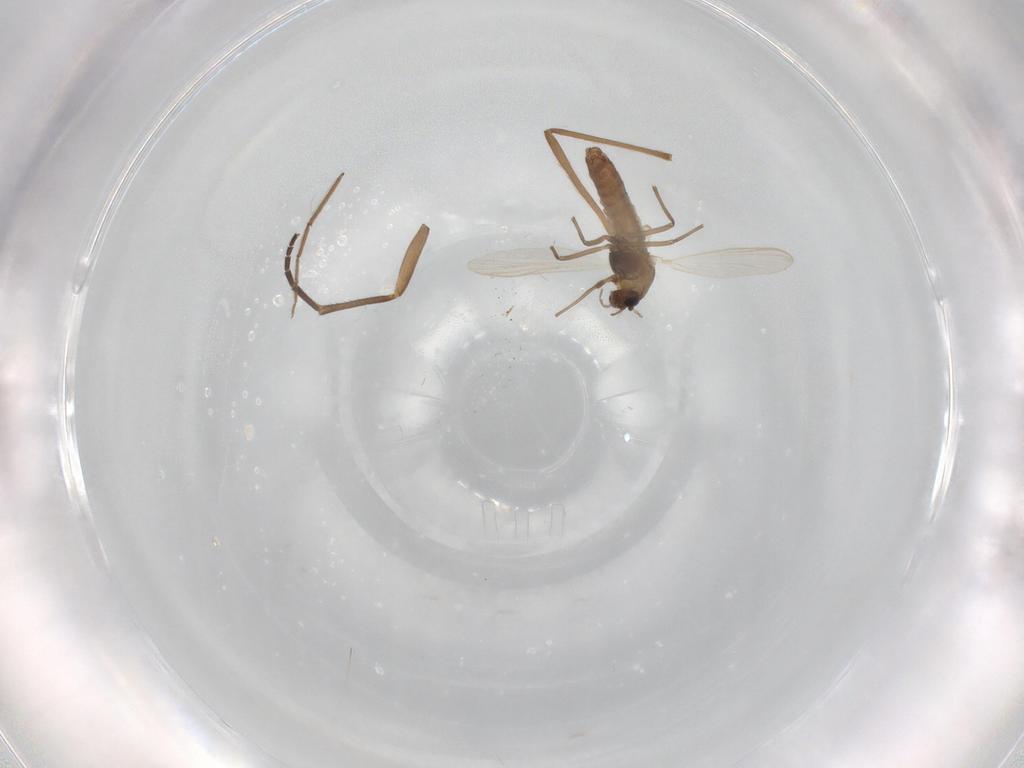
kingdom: Animalia
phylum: Arthropoda
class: Insecta
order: Diptera
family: Chironomidae
